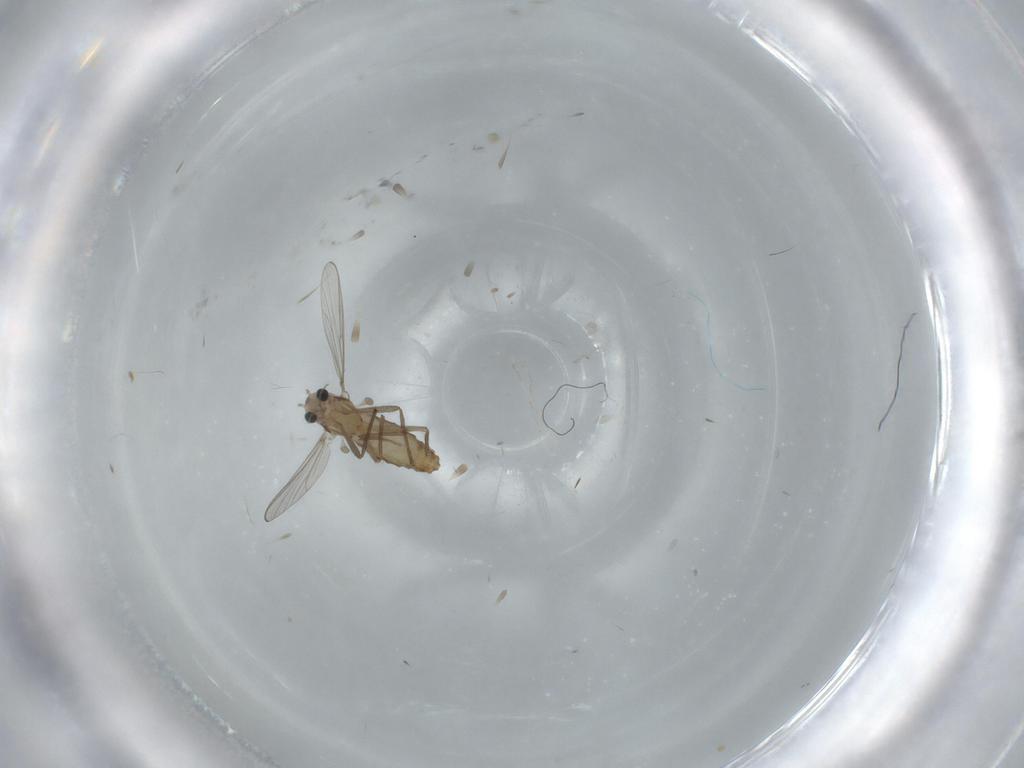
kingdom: Animalia
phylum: Arthropoda
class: Insecta
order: Diptera
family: Chironomidae
